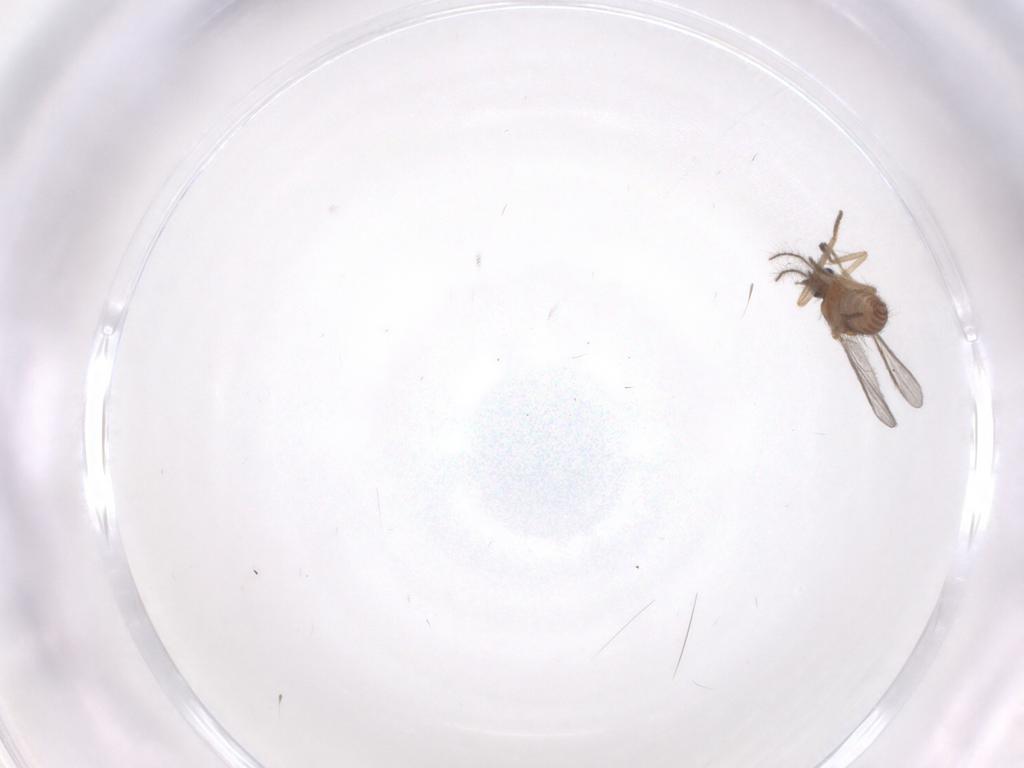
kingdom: Animalia
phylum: Arthropoda
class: Insecta
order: Diptera
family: Ceratopogonidae
